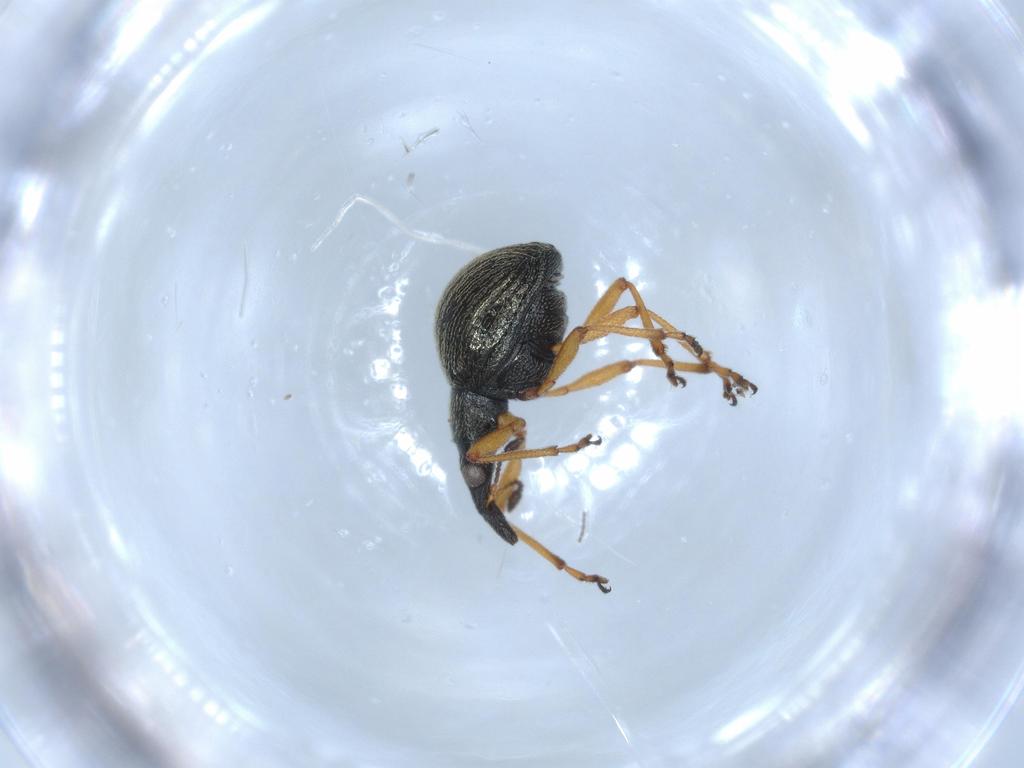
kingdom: Animalia
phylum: Arthropoda
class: Insecta
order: Coleoptera
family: Brentidae
